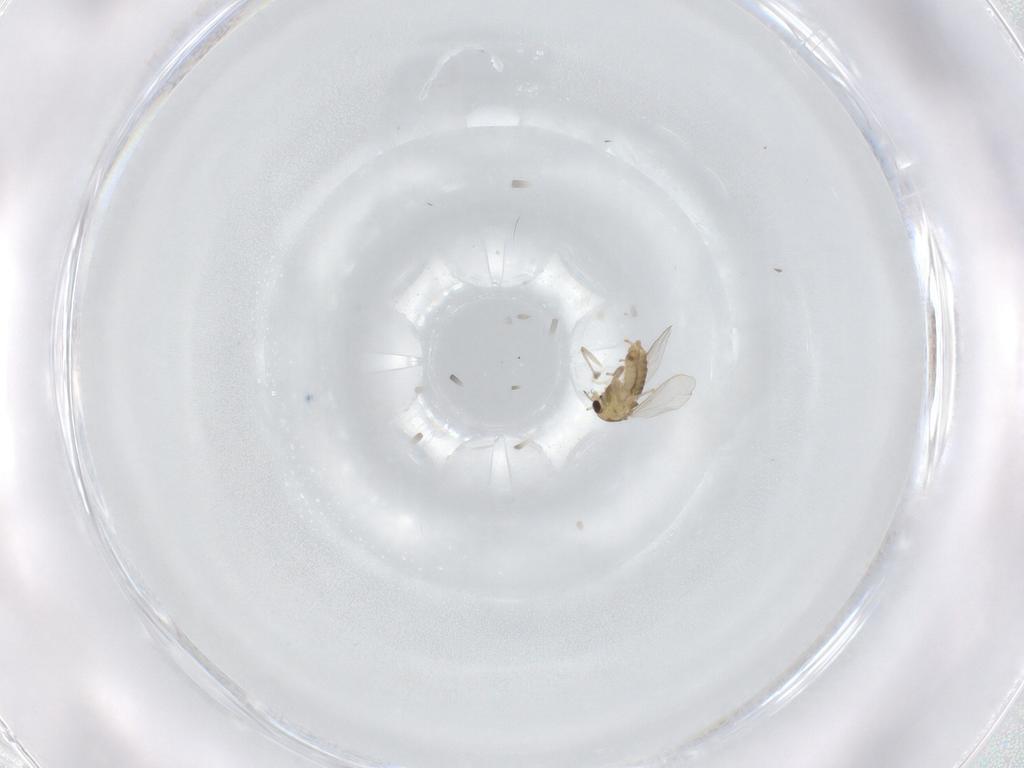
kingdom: Animalia
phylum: Arthropoda
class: Insecta
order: Diptera
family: Chironomidae
